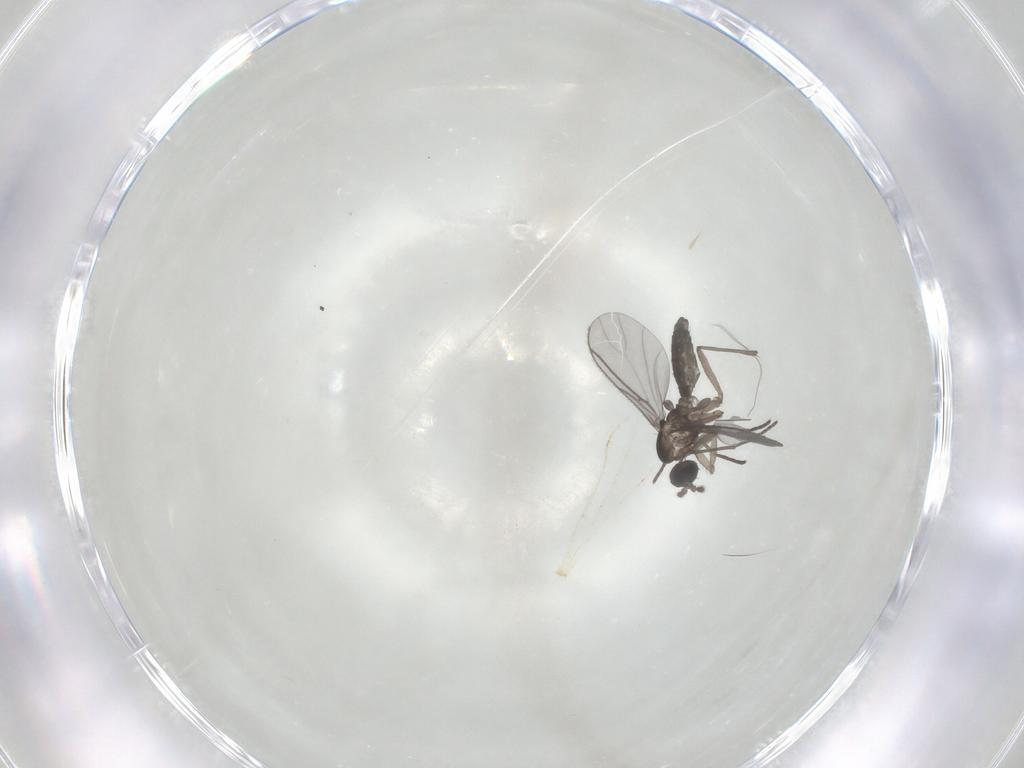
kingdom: Animalia
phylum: Arthropoda
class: Insecta
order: Diptera
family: Sciaridae
